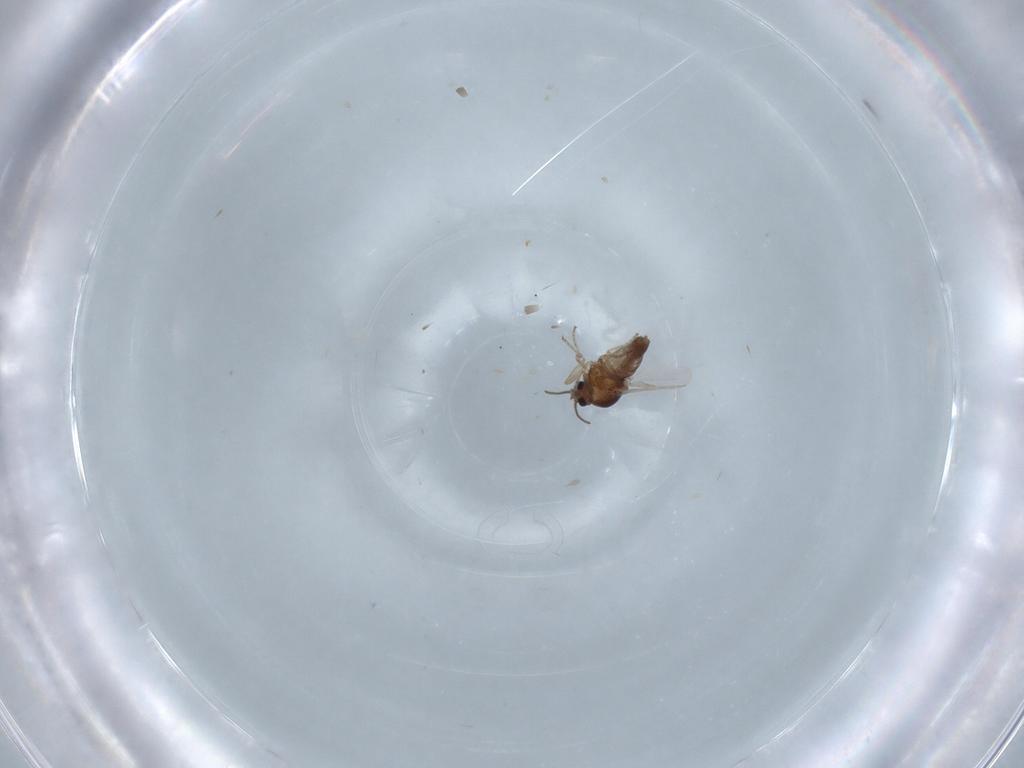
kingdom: Animalia
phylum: Arthropoda
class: Insecta
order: Diptera
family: Ceratopogonidae
